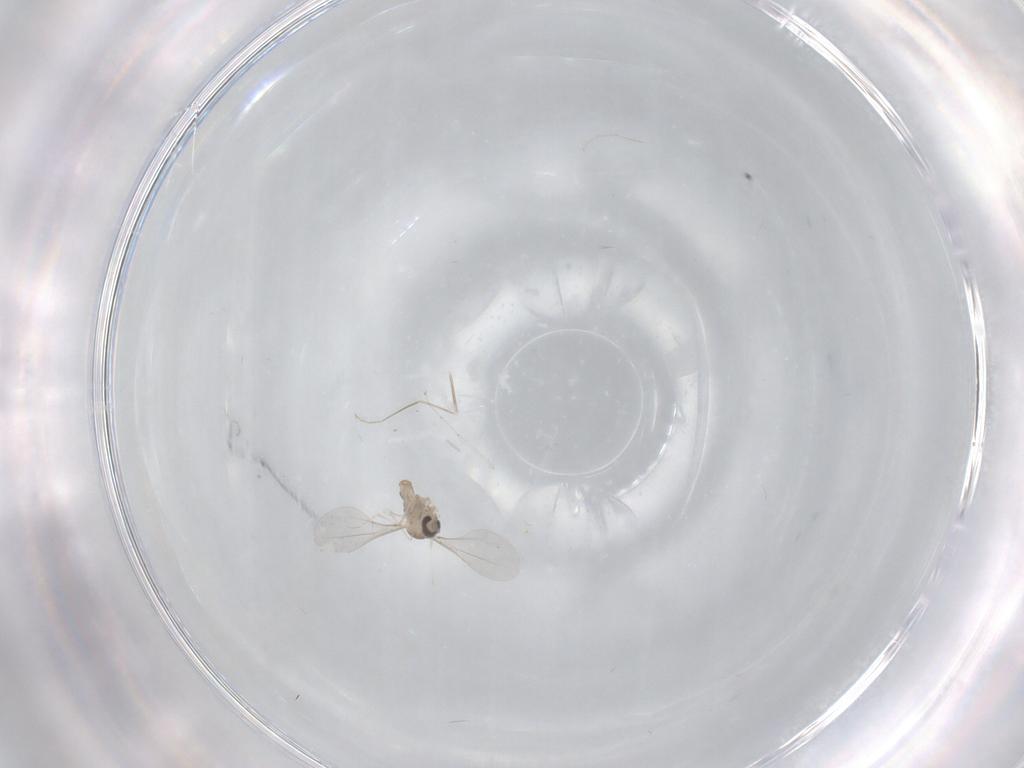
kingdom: Animalia
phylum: Arthropoda
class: Insecta
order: Diptera
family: Cecidomyiidae
